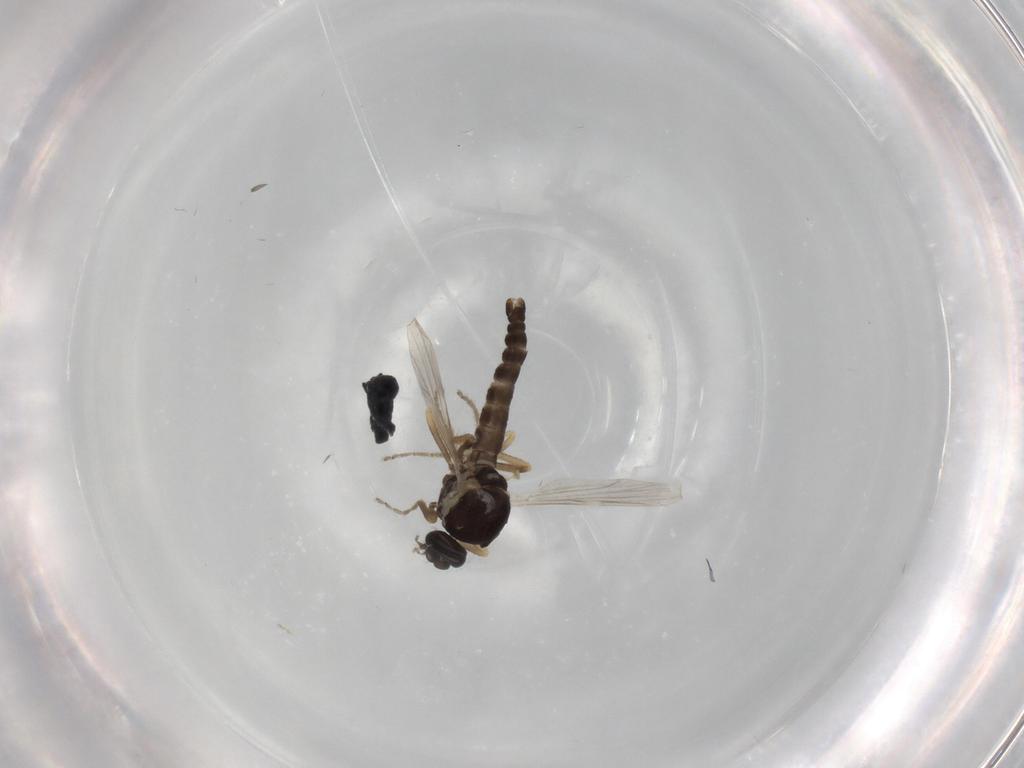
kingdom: Animalia
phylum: Arthropoda
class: Insecta
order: Diptera
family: Ceratopogonidae
